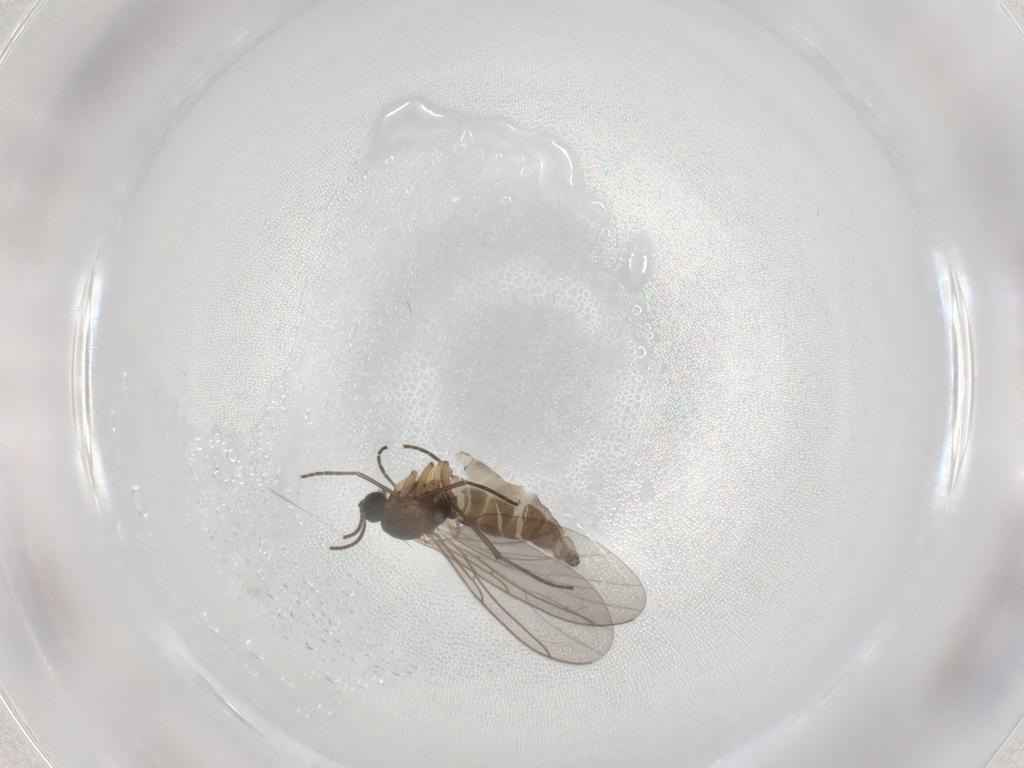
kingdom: Animalia
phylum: Arthropoda
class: Insecta
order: Diptera
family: Sciaridae
